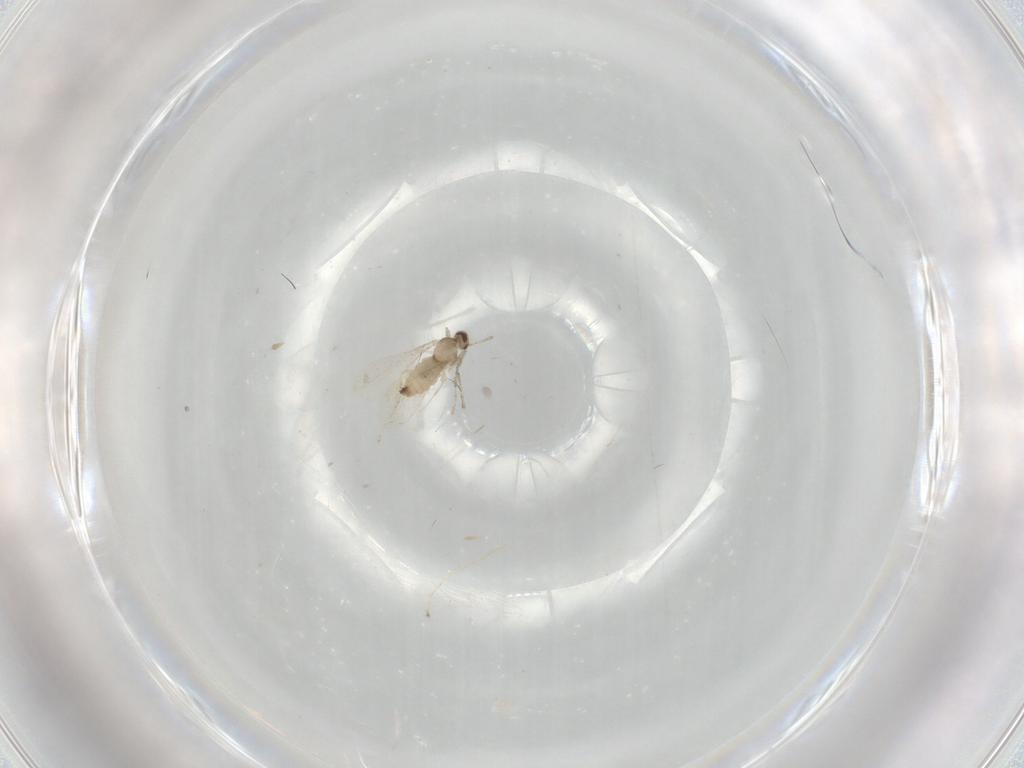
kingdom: Animalia
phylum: Arthropoda
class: Insecta
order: Diptera
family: Cecidomyiidae
